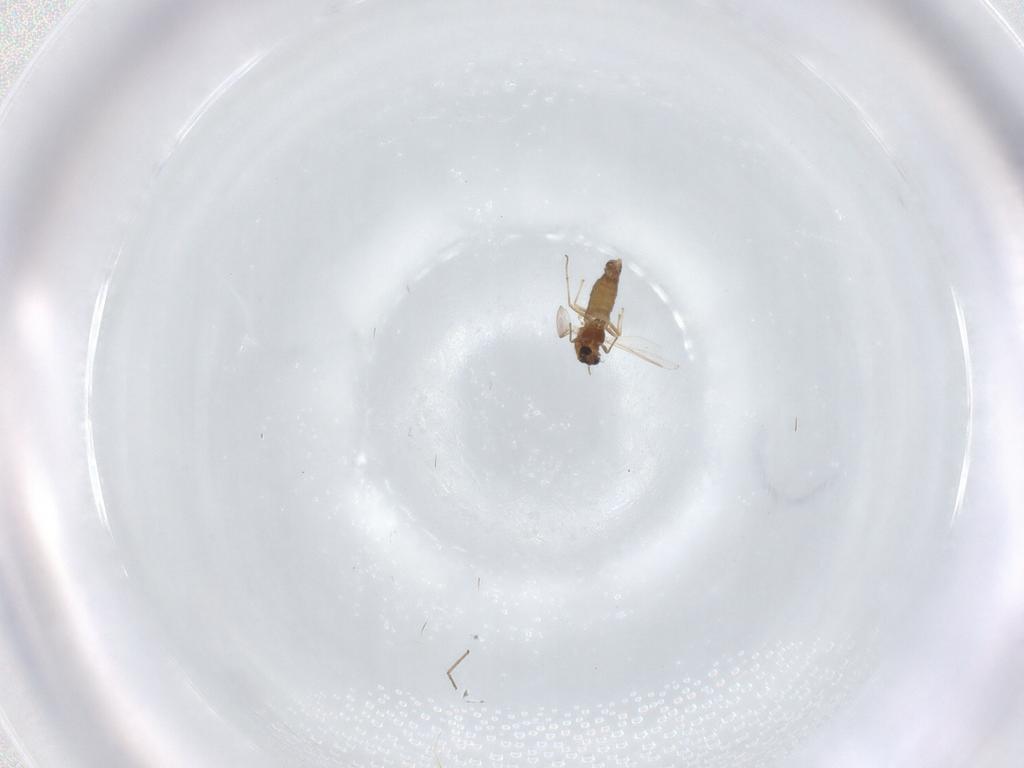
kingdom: Animalia
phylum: Arthropoda
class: Insecta
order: Diptera
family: Chironomidae
